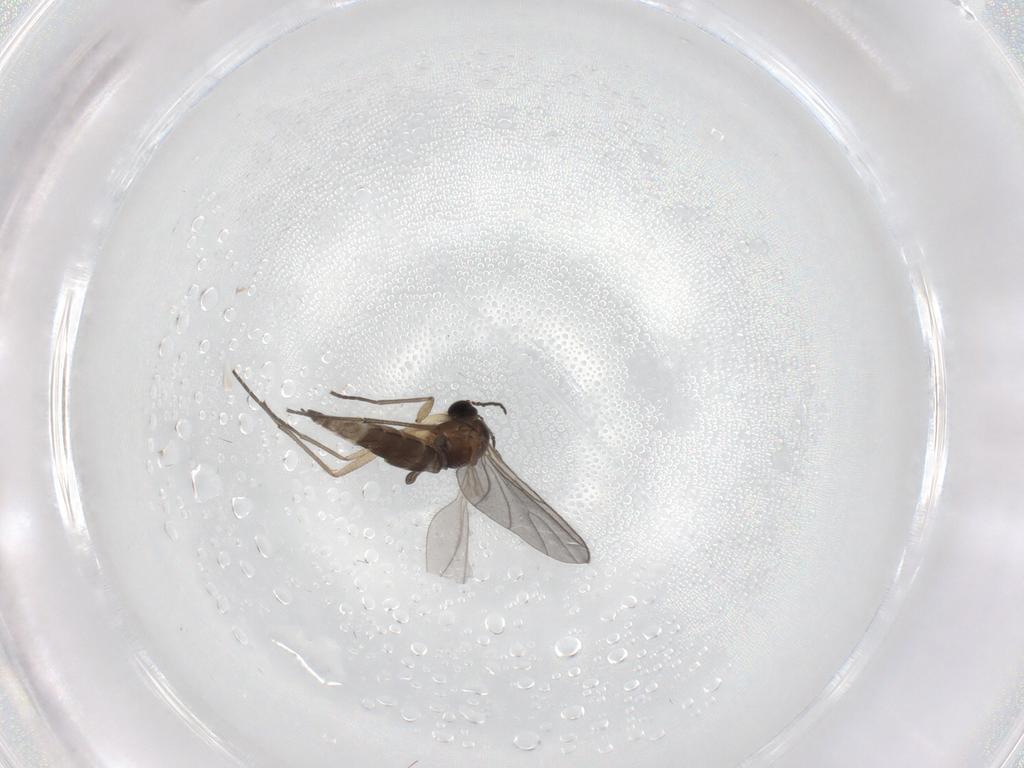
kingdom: Animalia
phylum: Arthropoda
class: Insecta
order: Diptera
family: Sciaridae
